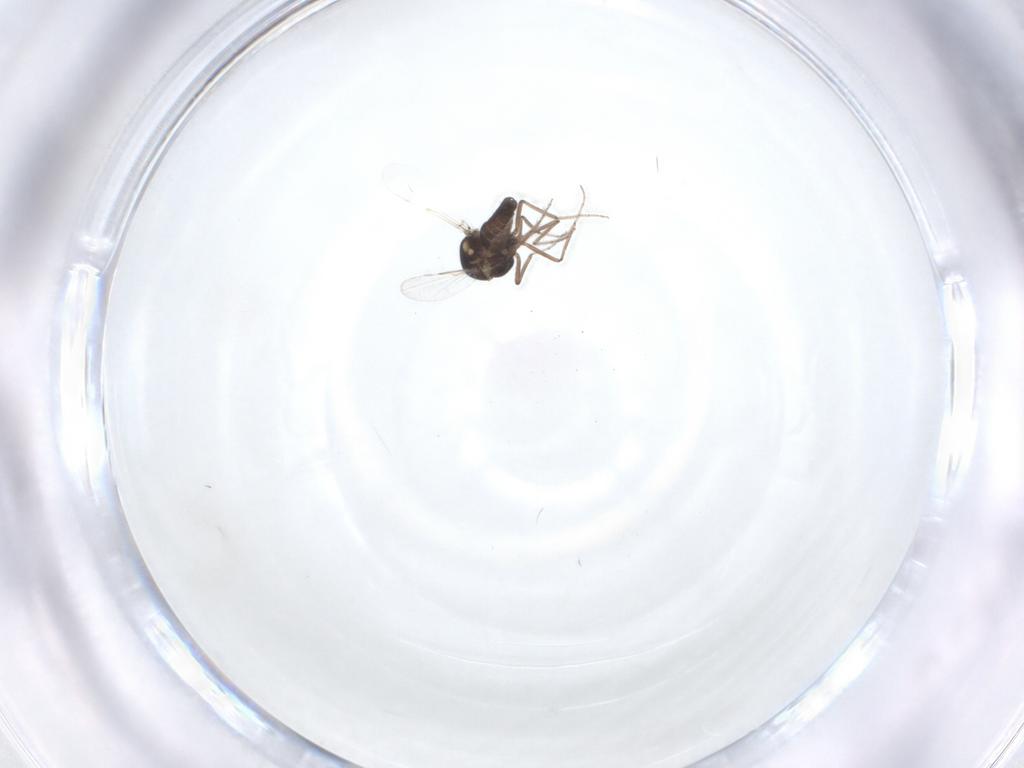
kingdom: Animalia
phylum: Arthropoda
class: Insecta
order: Diptera
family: Ceratopogonidae
